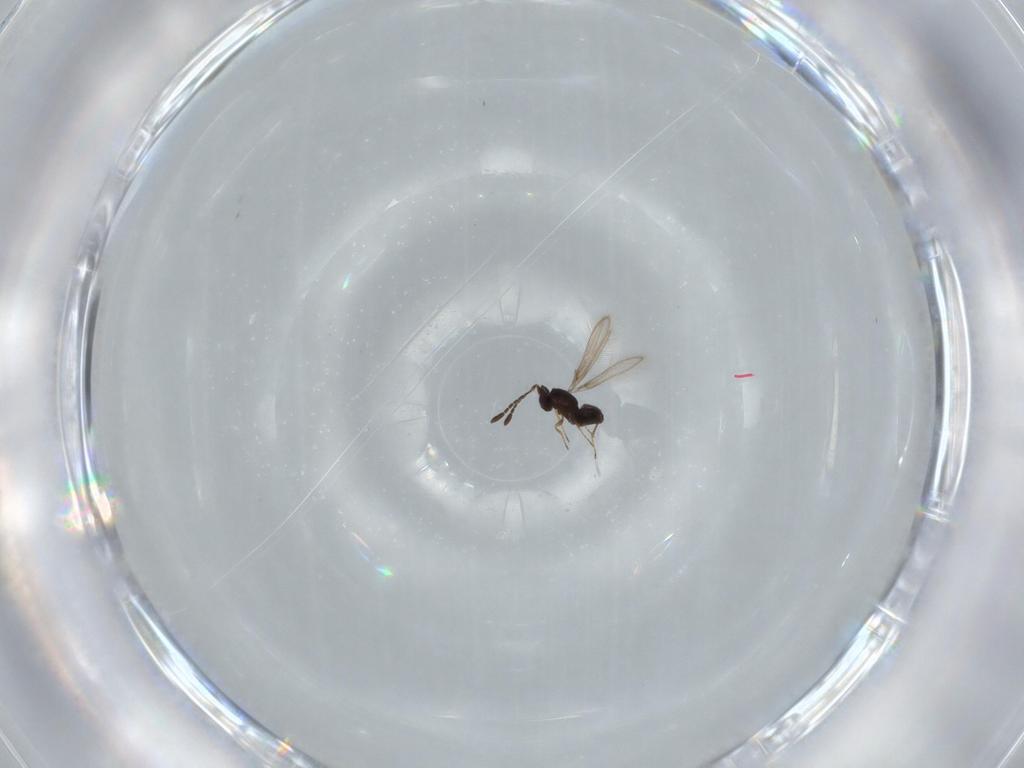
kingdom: Animalia
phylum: Arthropoda
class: Insecta
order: Hymenoptera
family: Mymaridae
